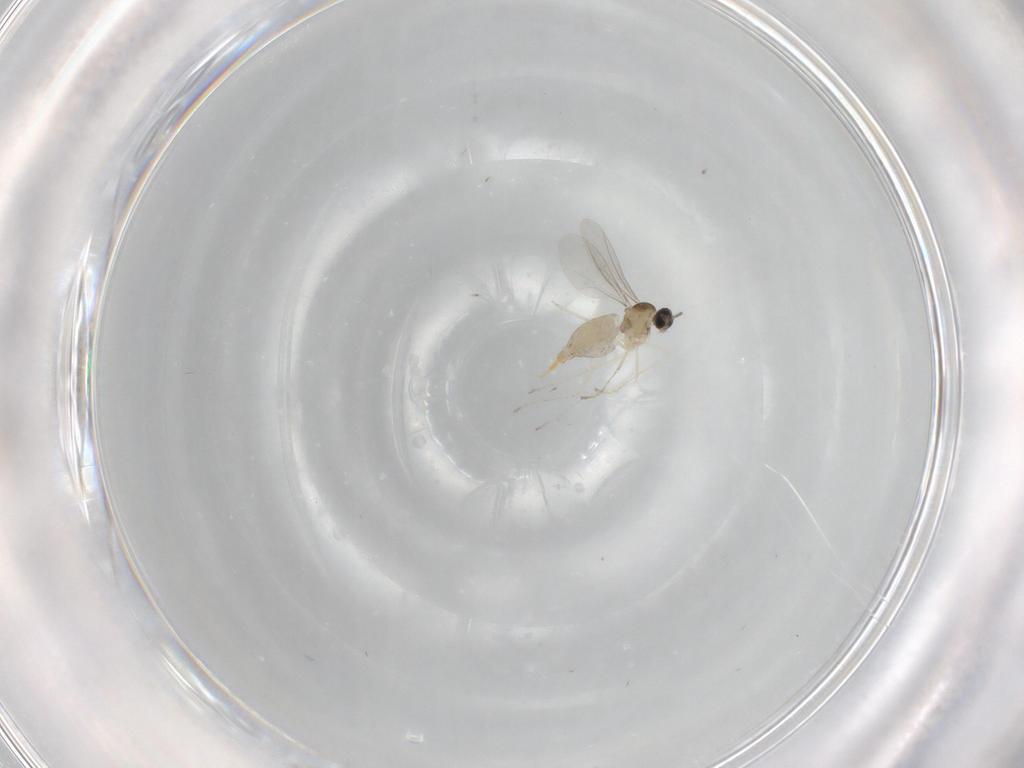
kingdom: Animalia
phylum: Arthropoda
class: Insecta
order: Diptera
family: Cecidomyiidae
